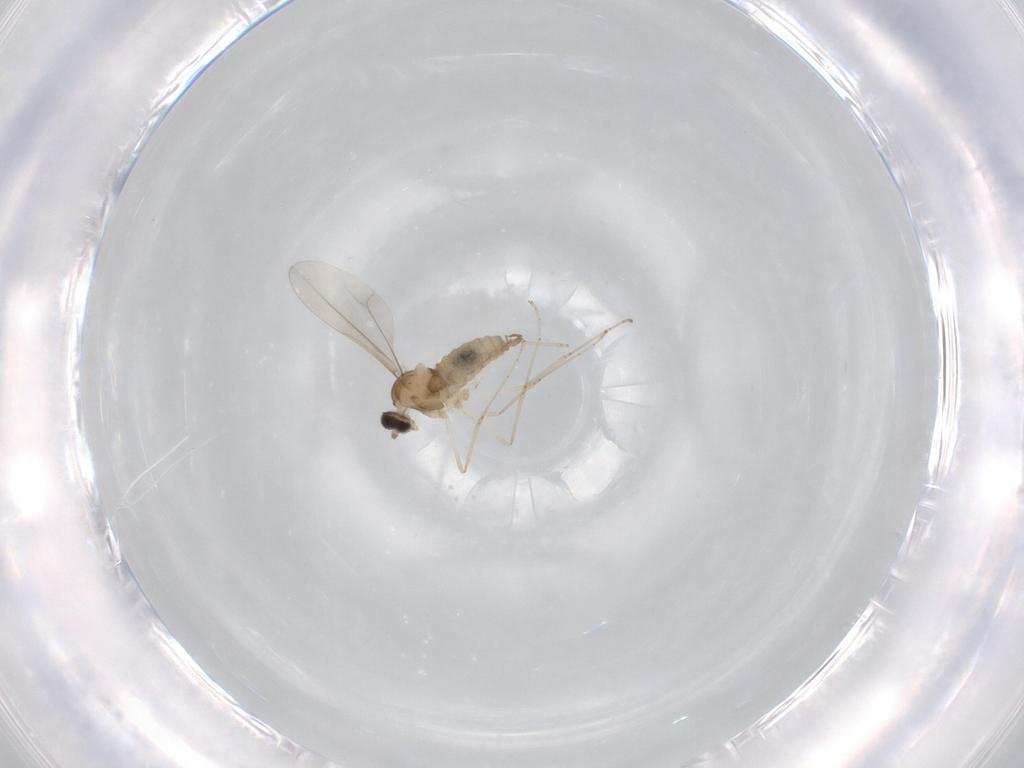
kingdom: Animalia
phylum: Arthropoda
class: Insecta
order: Diptera
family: Cecidomyiidae
